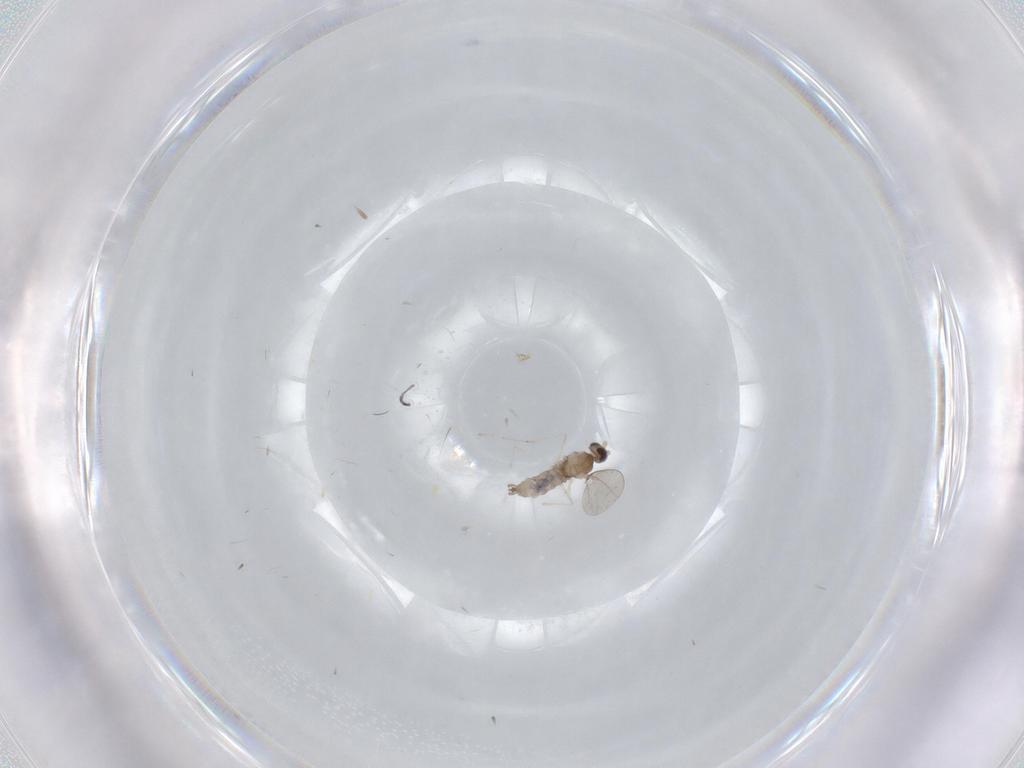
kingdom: Animalia
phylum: Arthropoda
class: Insecta
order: Diptera
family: Cecidomyiidae
